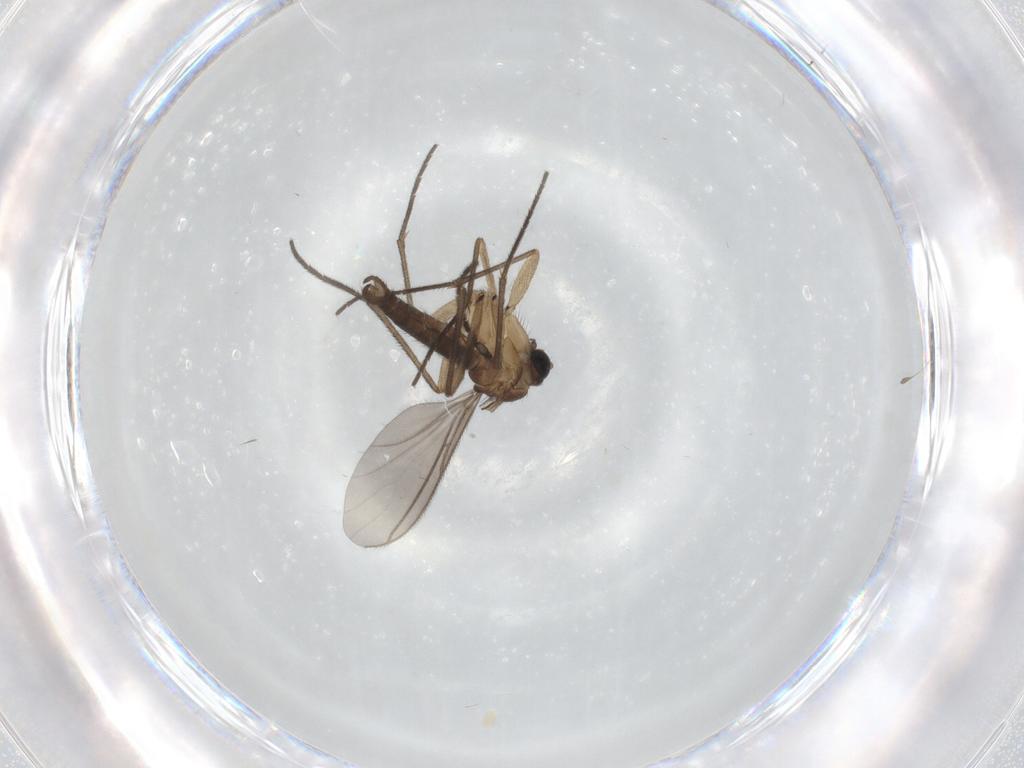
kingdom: Animalia
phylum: Arthropoda
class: Insecta
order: Diptera
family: Sciaridae
